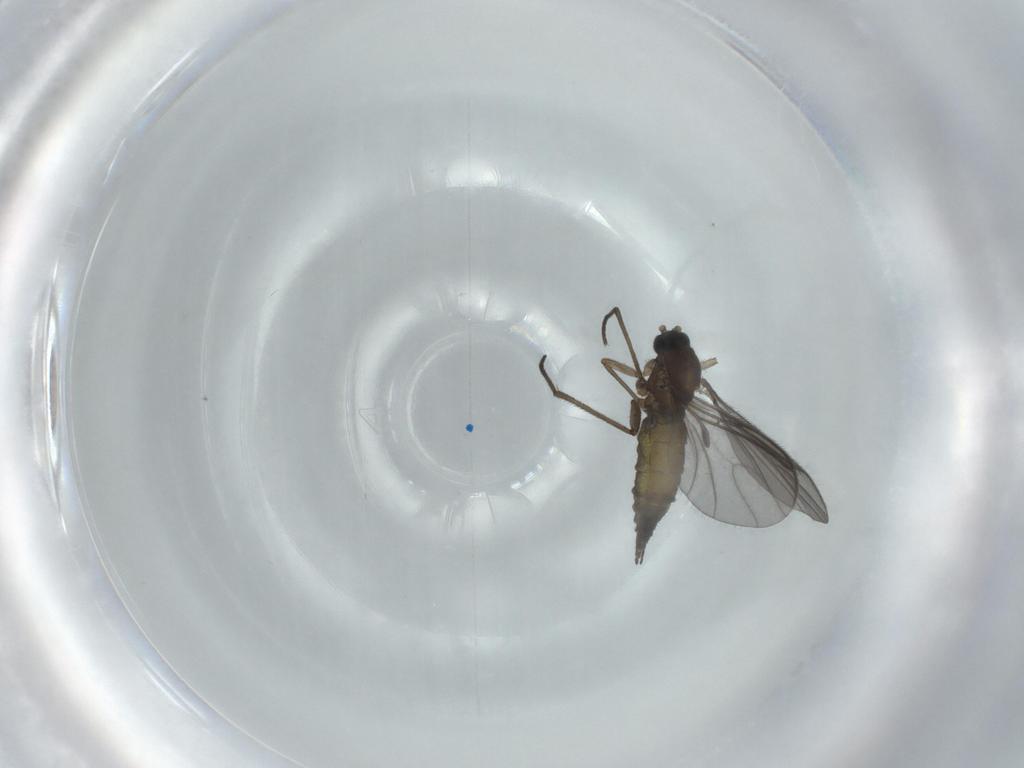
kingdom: Animalia
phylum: Arthropoda
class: Insecta
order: Diptera
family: Sciaridae
